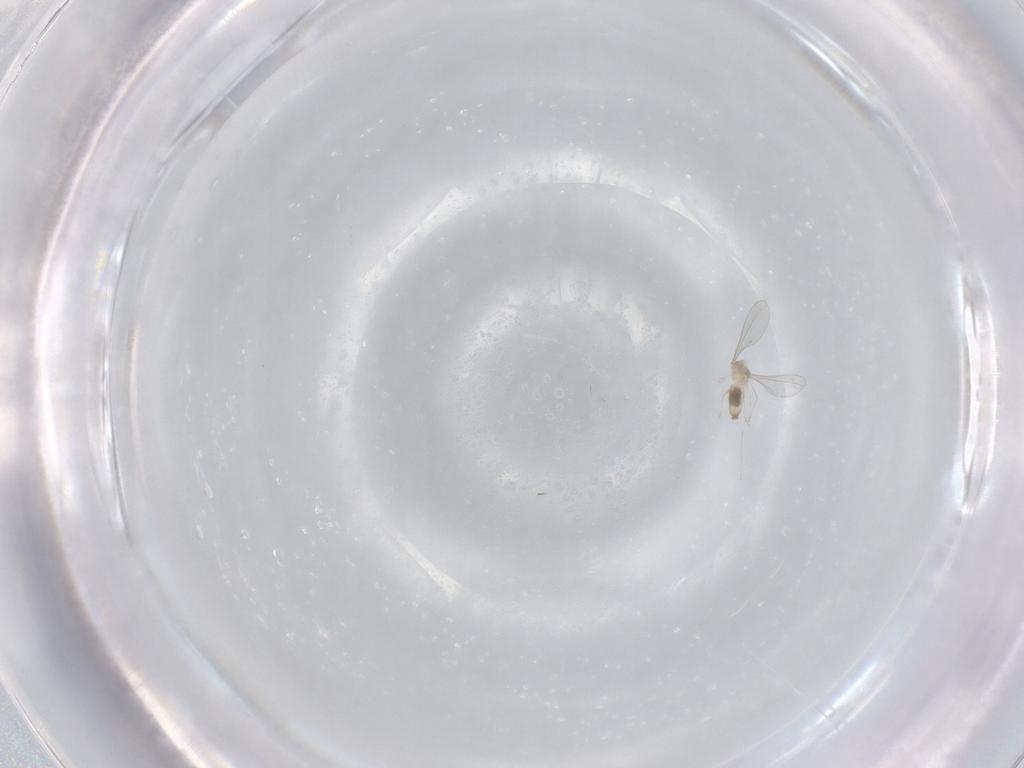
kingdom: Animalia
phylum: Arthropoda
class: Insecta
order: Diptera
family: Cecidomyiidae
